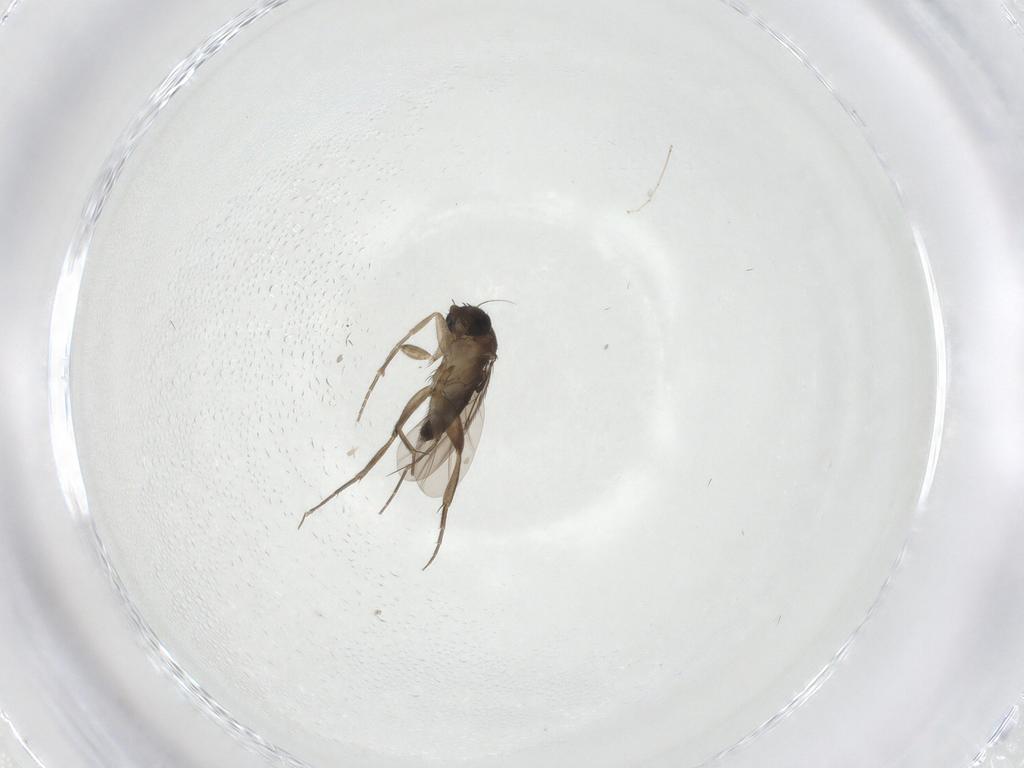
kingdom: Animalia
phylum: Arthropoda
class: Insecta
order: Diptera
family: Phoridae
